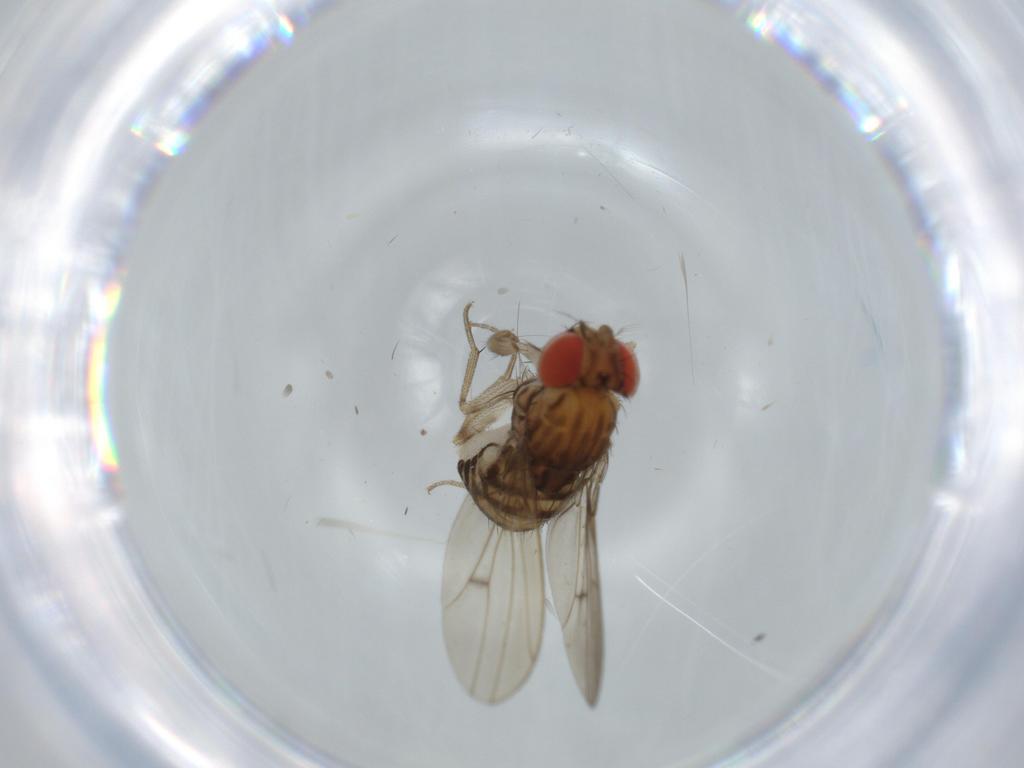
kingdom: Animalia
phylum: Arthropoda
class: Insecta
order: Diptera
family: Drosophilidae
